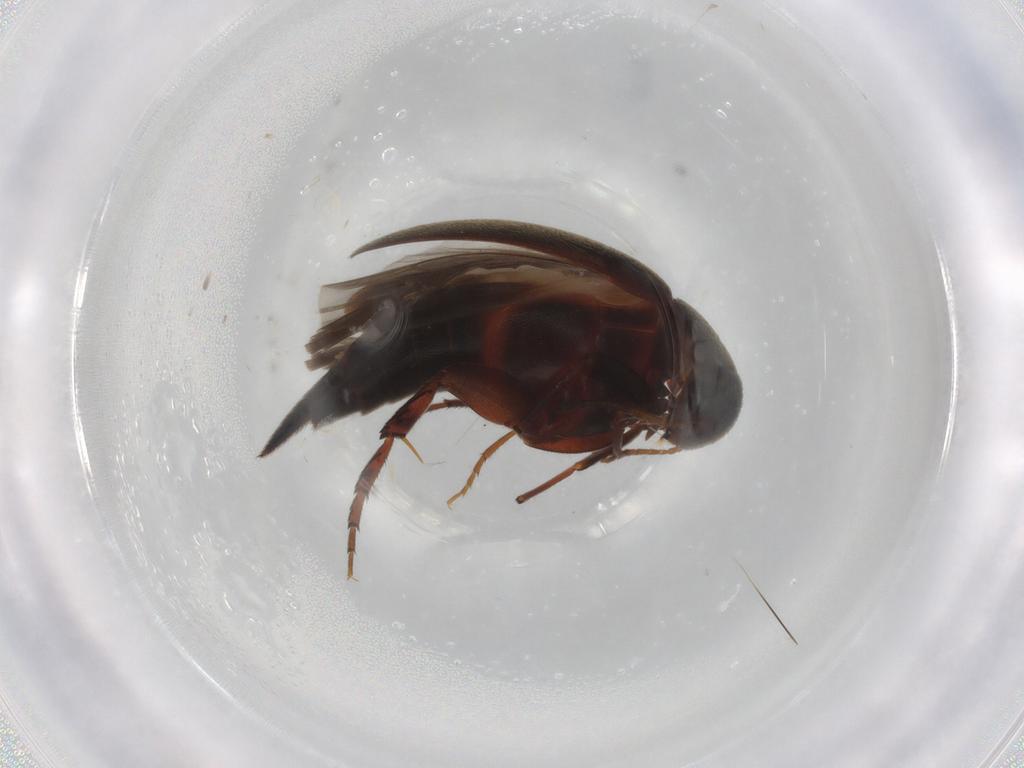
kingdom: Animalia
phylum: Arthropoda
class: Insecta
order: Coleoptera
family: Mordellidae
